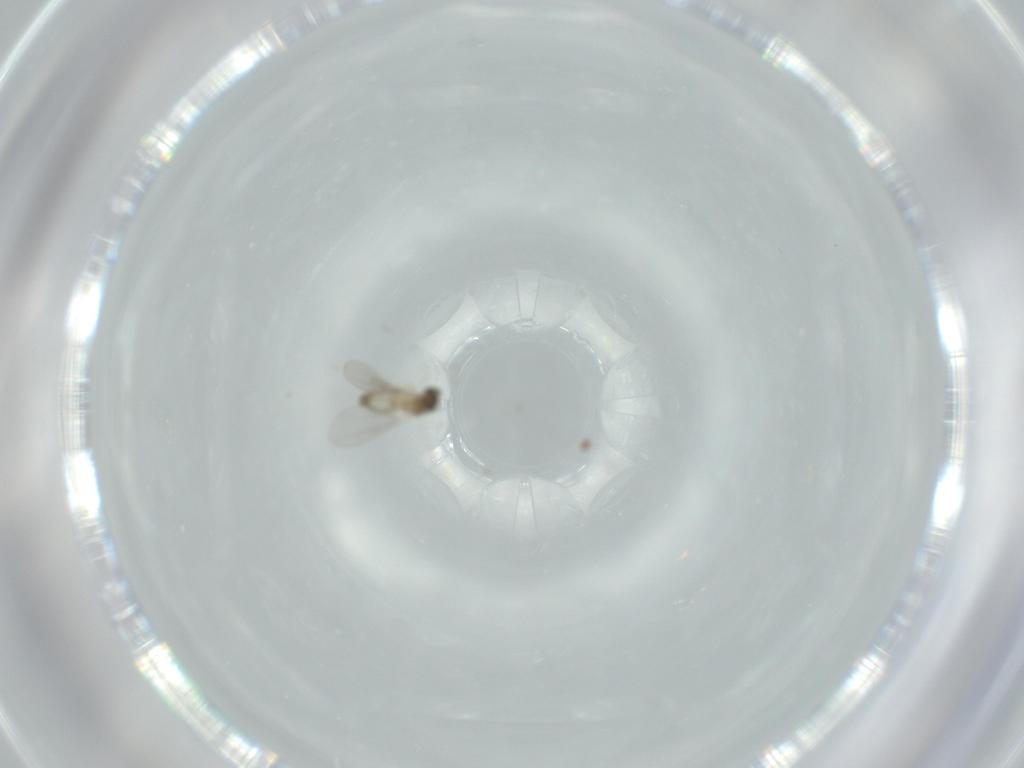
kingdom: Animalia
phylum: Arthropoda
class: Insecta
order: Diptera
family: Cecidomyiidae
